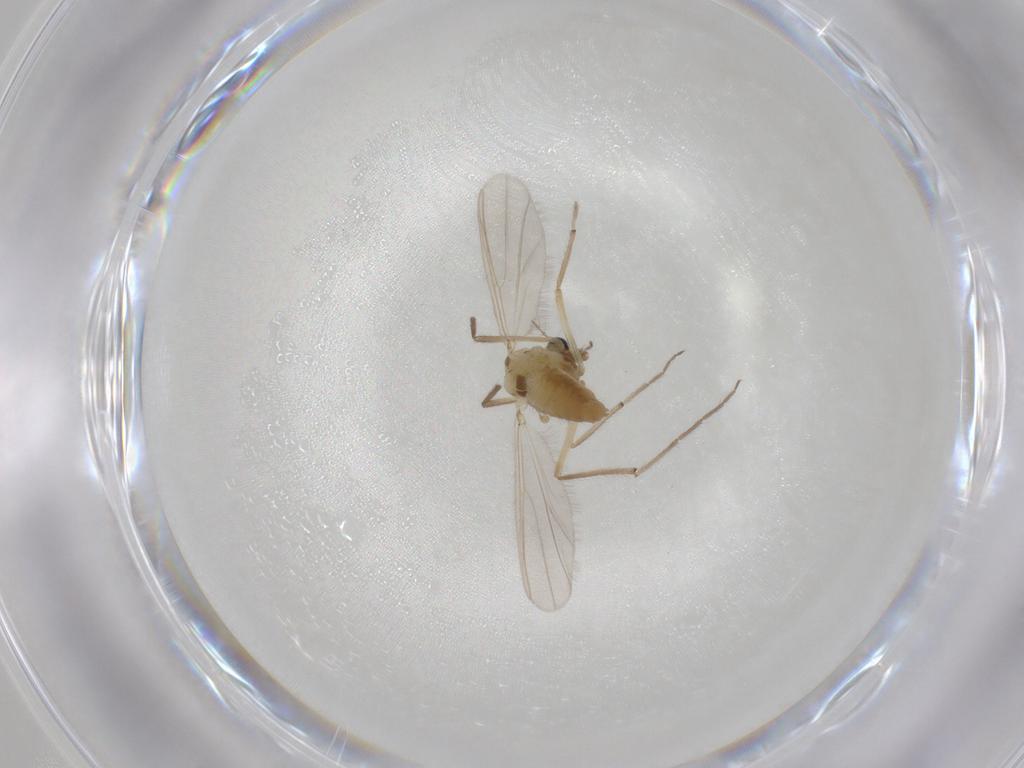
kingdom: Animalia
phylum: Arthropoda
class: Insecta
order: Diptera
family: Chironomidae
